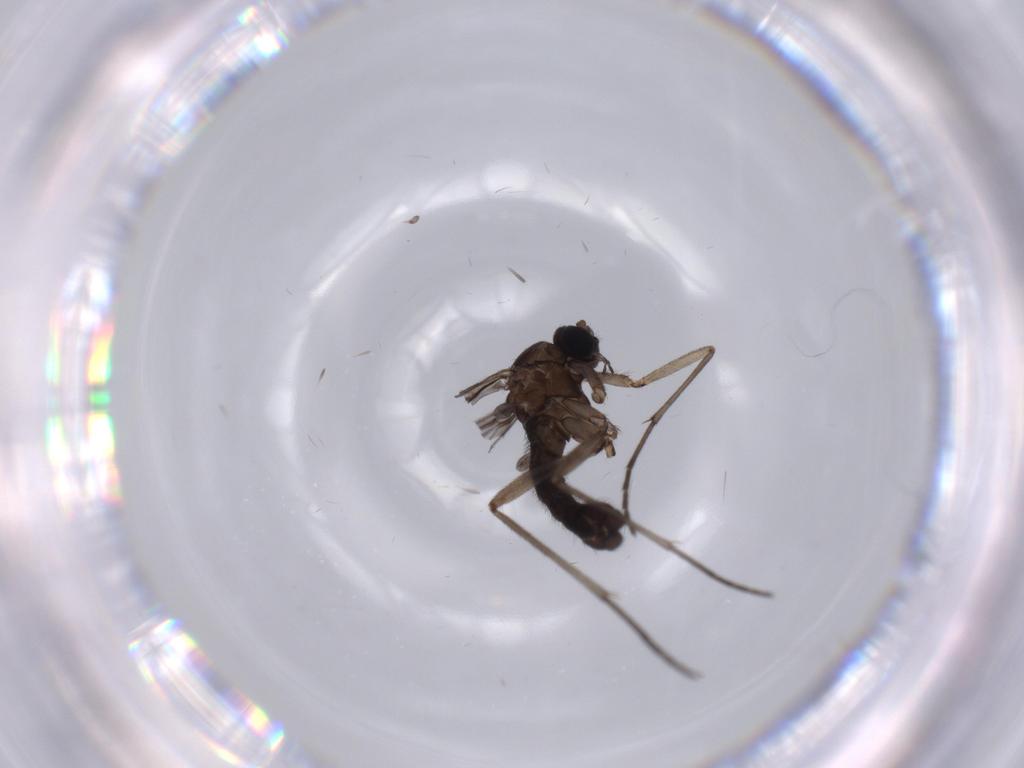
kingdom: Animalia
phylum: Arthropoda
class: Insecta
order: Diptera
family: Sciaridae
